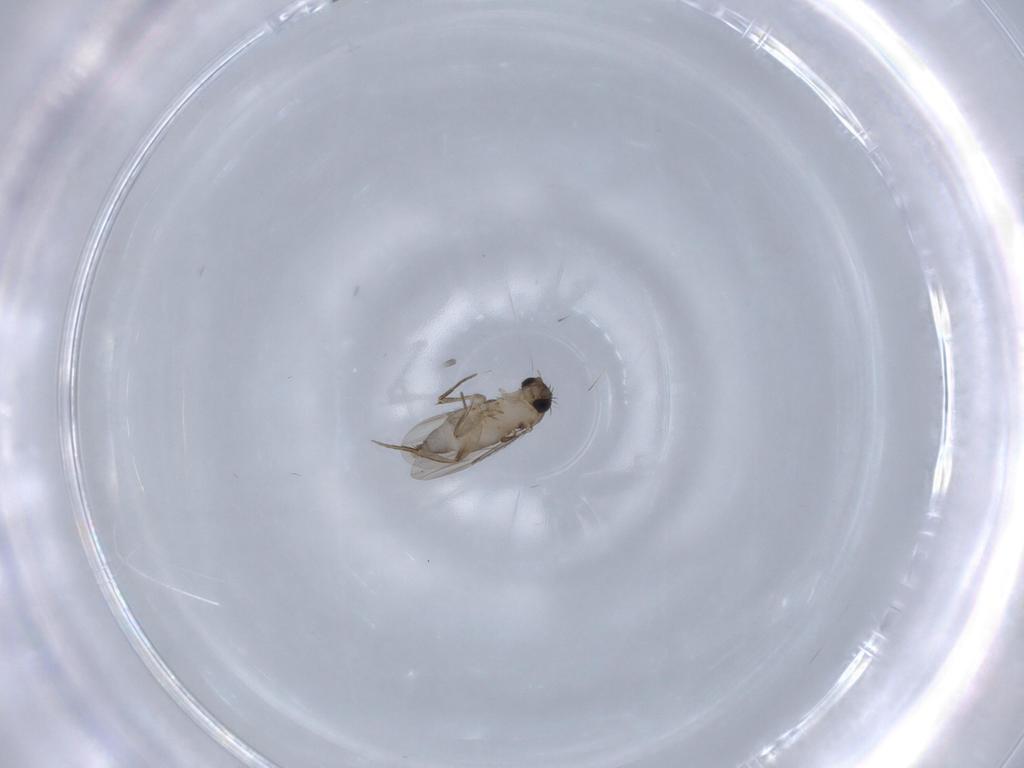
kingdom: Animalia
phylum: Arthropoda
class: Insecta
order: Diptera
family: Phoridae
